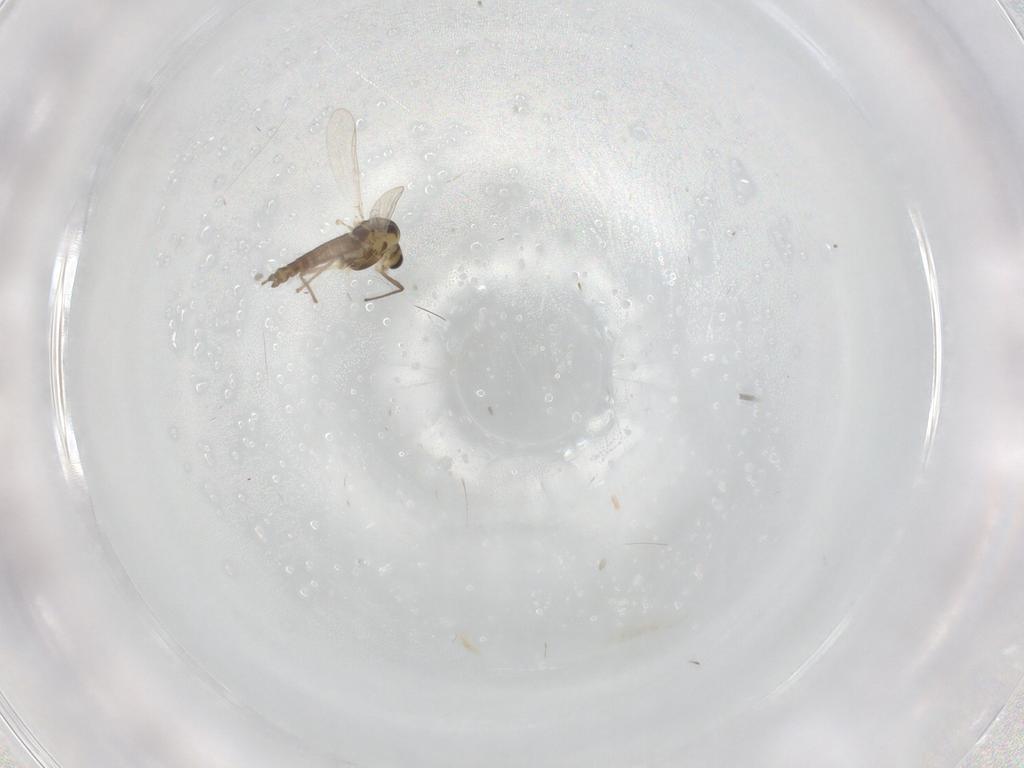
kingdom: Animalia
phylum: Arthropoda
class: Insecta
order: Diptera
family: Chironomidae
